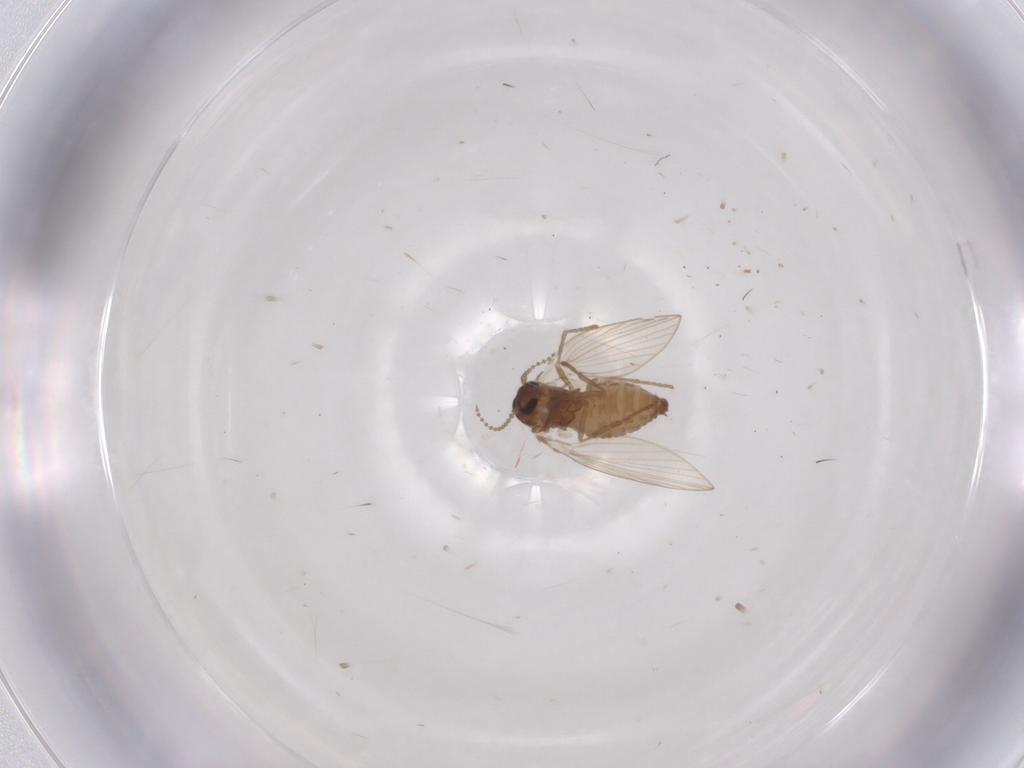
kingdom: Animalia
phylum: Arthropoda
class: Insecta
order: Diptera
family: Psychodidae
